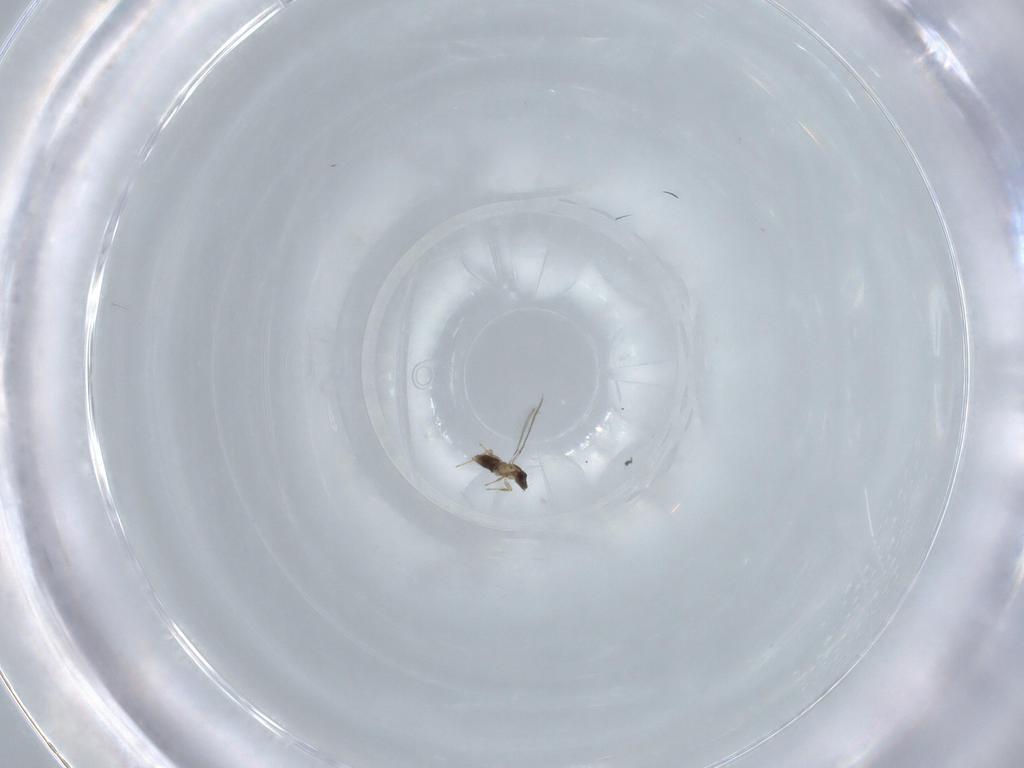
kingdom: Animalia
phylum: Arthropoda
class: Insecta
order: Hymenoptera
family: Mymaridae
